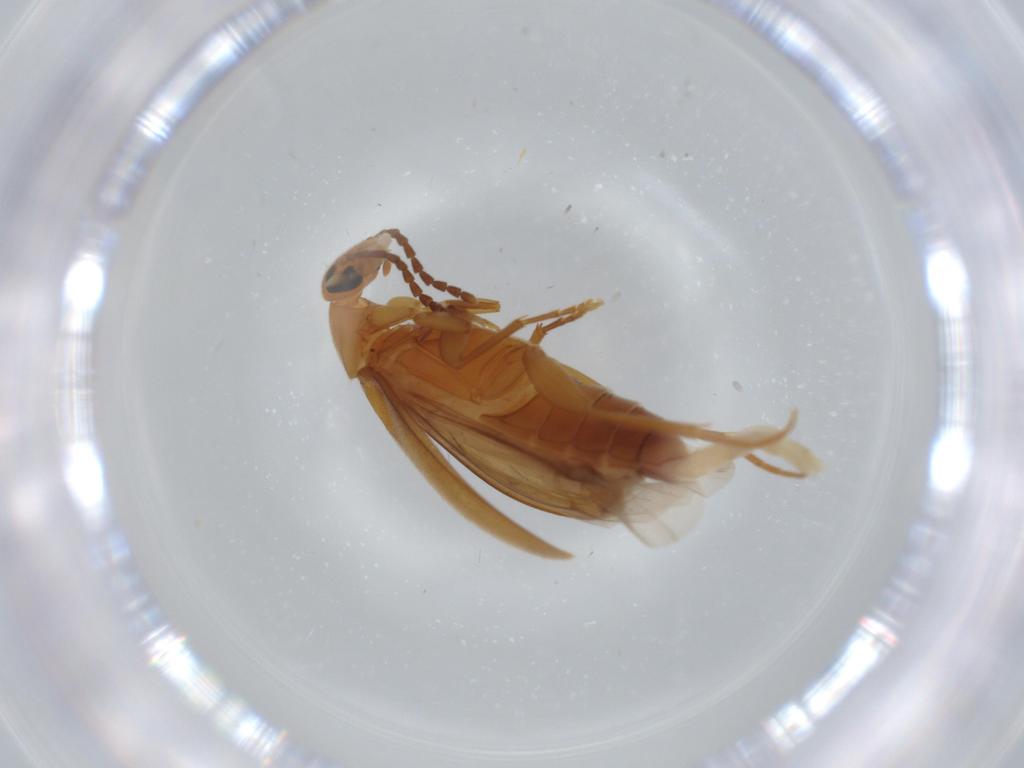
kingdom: Animalia
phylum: Arthropoda
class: Insecta
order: Coleoptera
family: Scraptiidae
